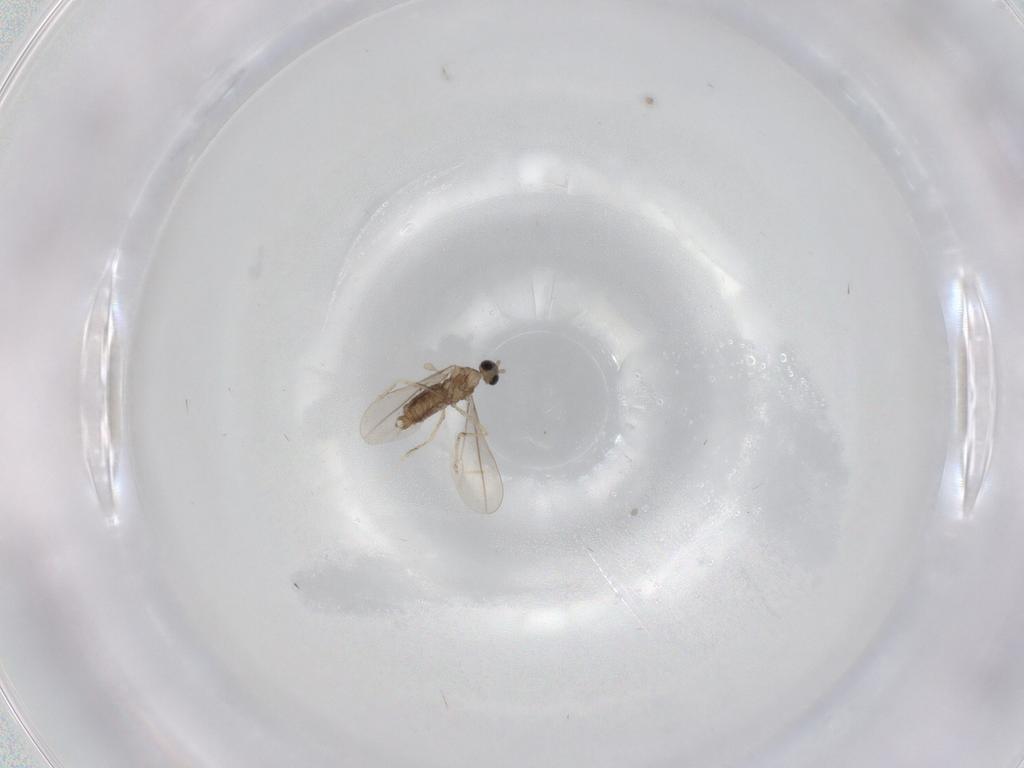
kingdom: Animalia
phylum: Arthropoda
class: Insecta
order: Diptera
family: Cecidomyiidae
